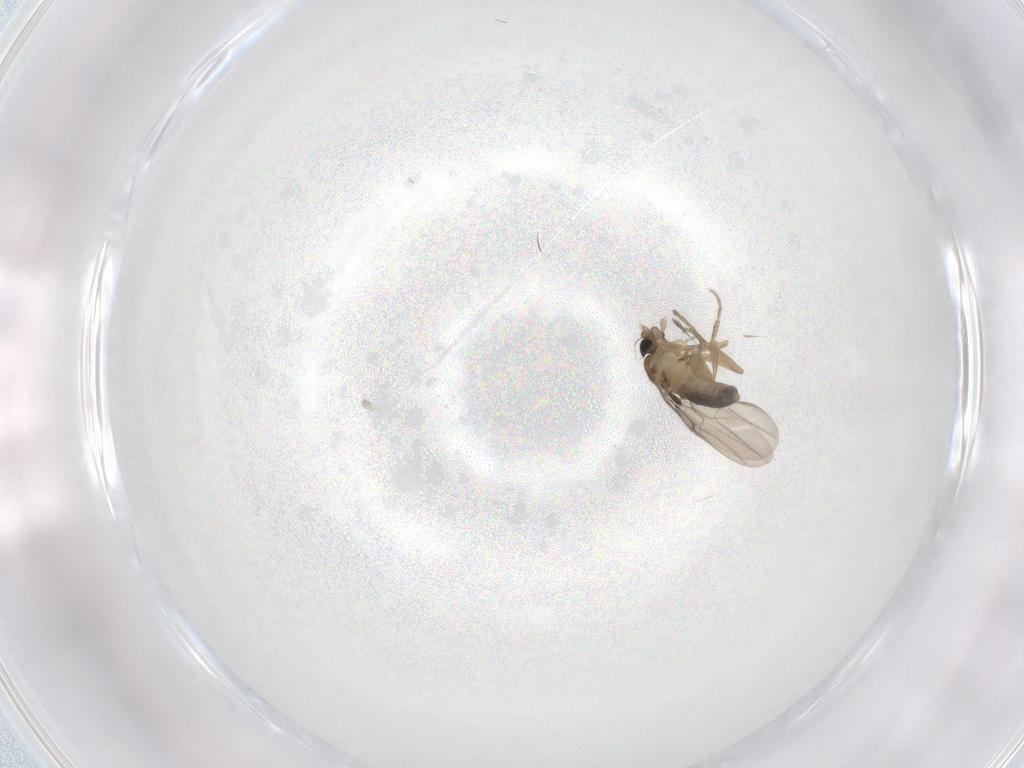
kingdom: Animalia
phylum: Arthropoda
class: Insecta
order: Diptera
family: Phoridae
